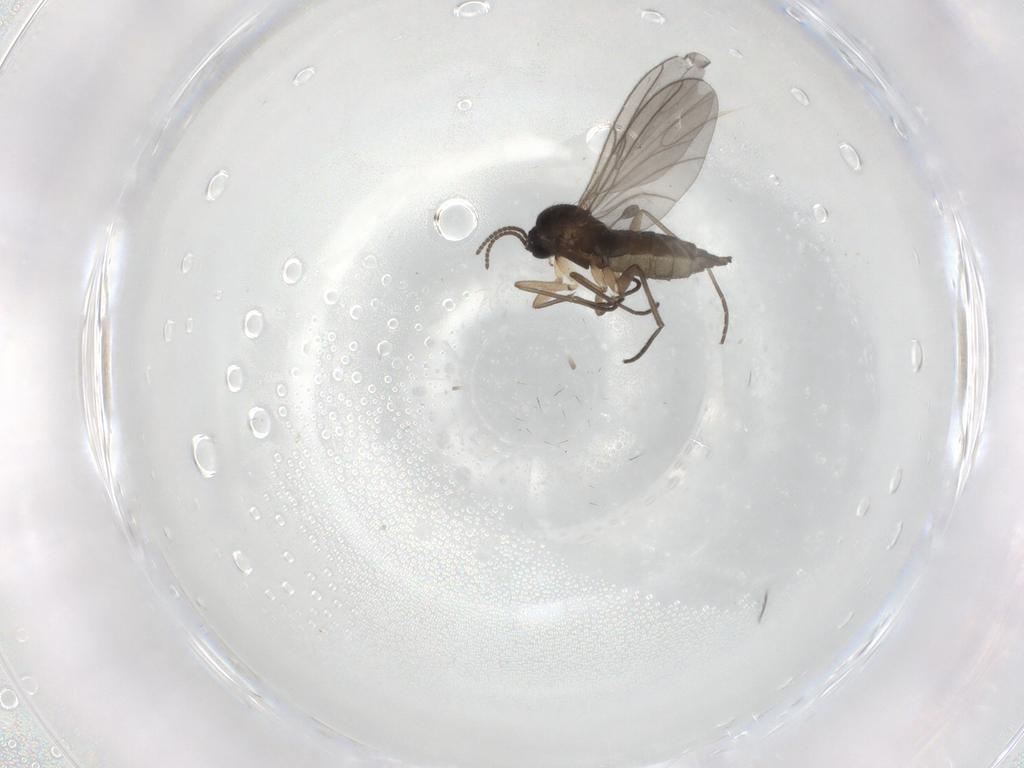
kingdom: Animalia
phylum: Arthropoda
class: Insecta
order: Diptera
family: Sciaridae
